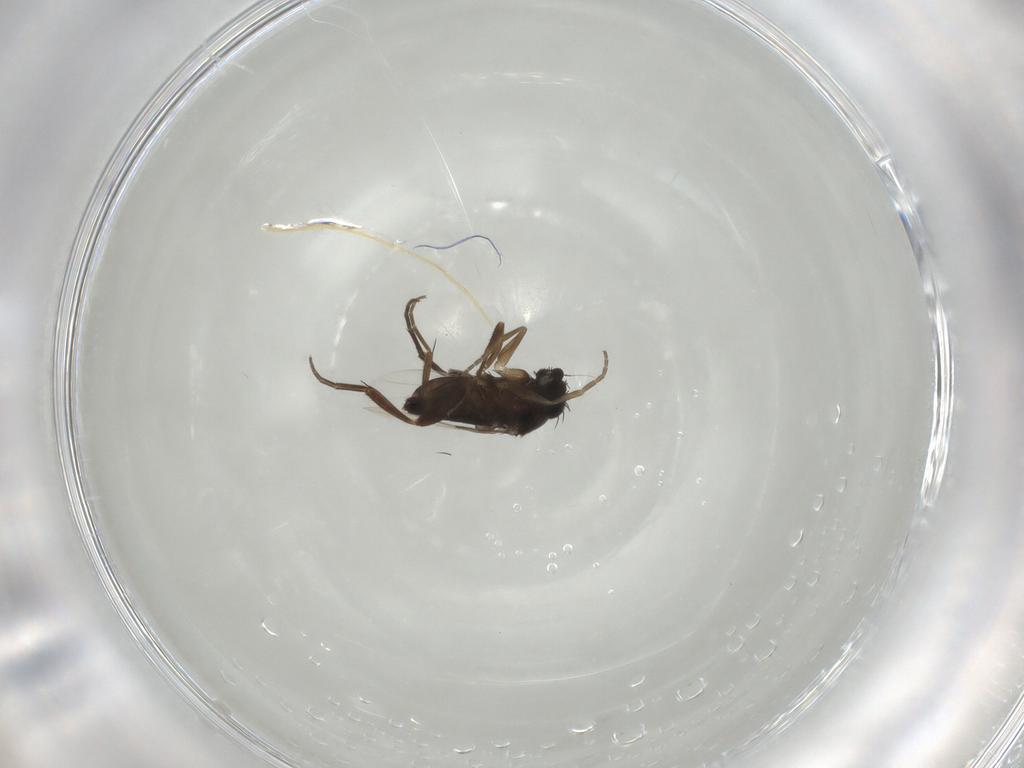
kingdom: Animalia
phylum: Arthropoda
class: Insecta
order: Diptera
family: Phoridae
